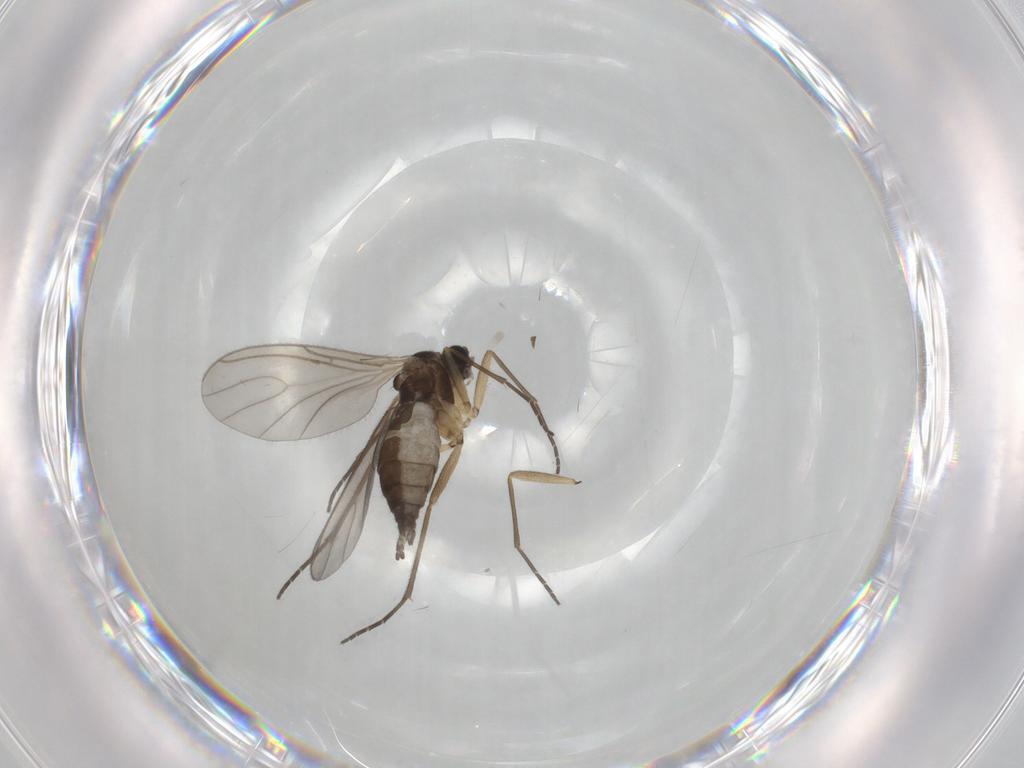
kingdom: Animalia
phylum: Arthropoda
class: Insecta
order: Diptera
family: Sciaridae
